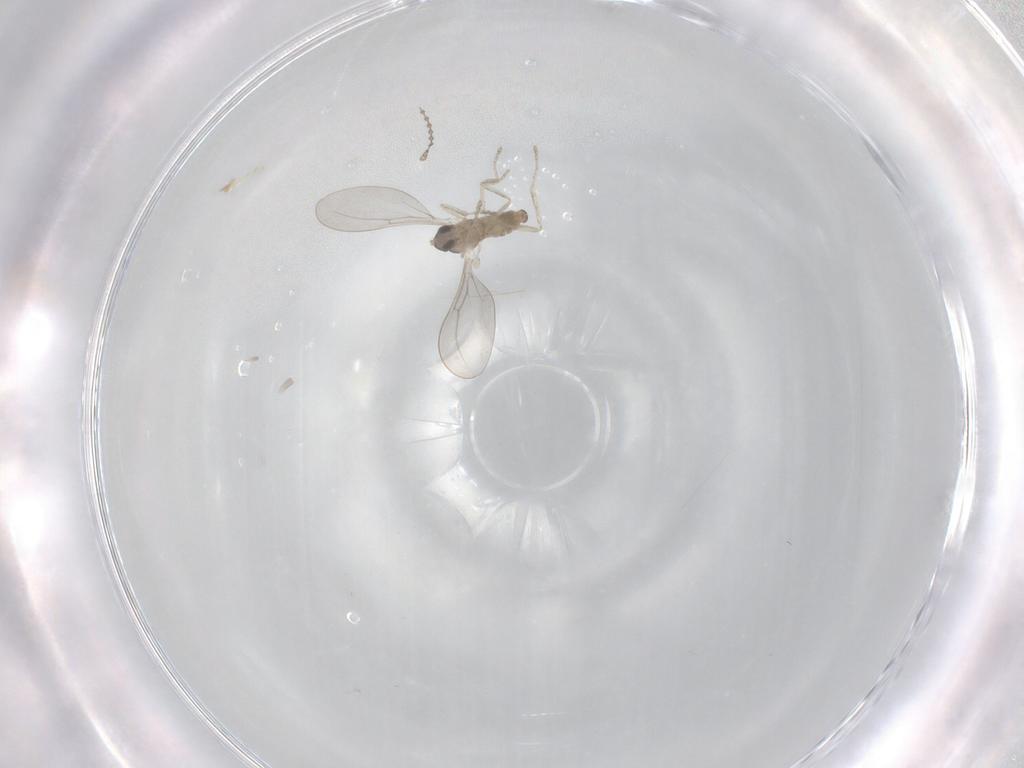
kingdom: Animalia
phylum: Arthropoda
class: Insecta
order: Diptera
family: Cecidomyiidae
